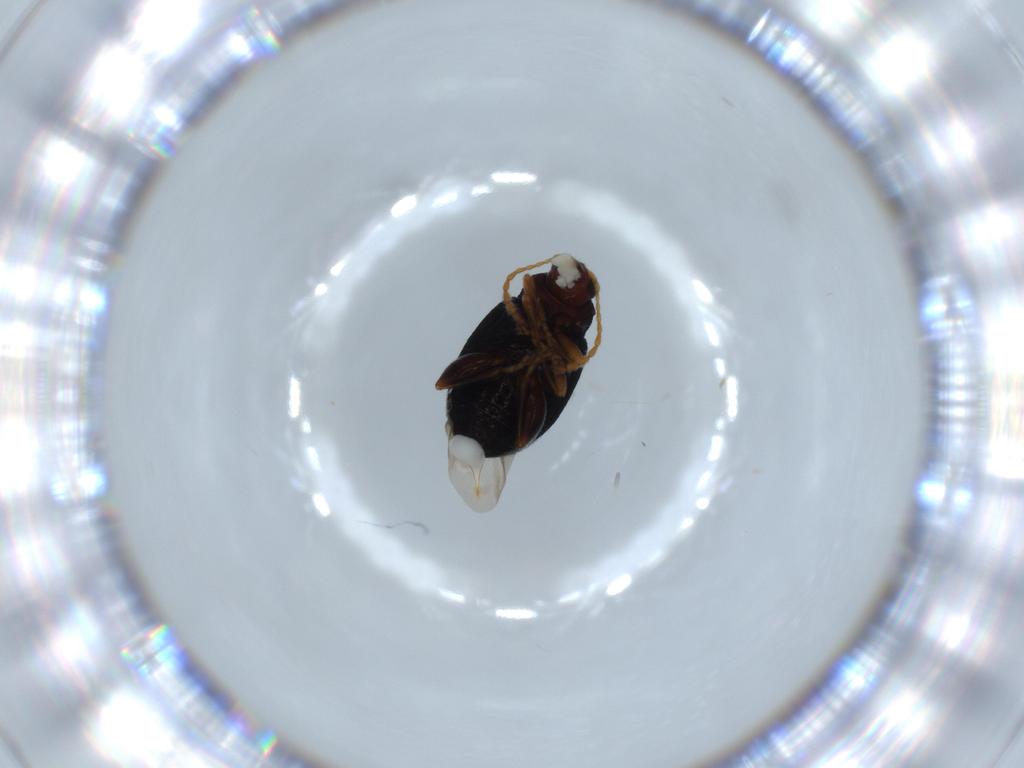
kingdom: Animalia
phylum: Arthropoda
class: Insecta
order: Coleoptera
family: Chrysomelidae
